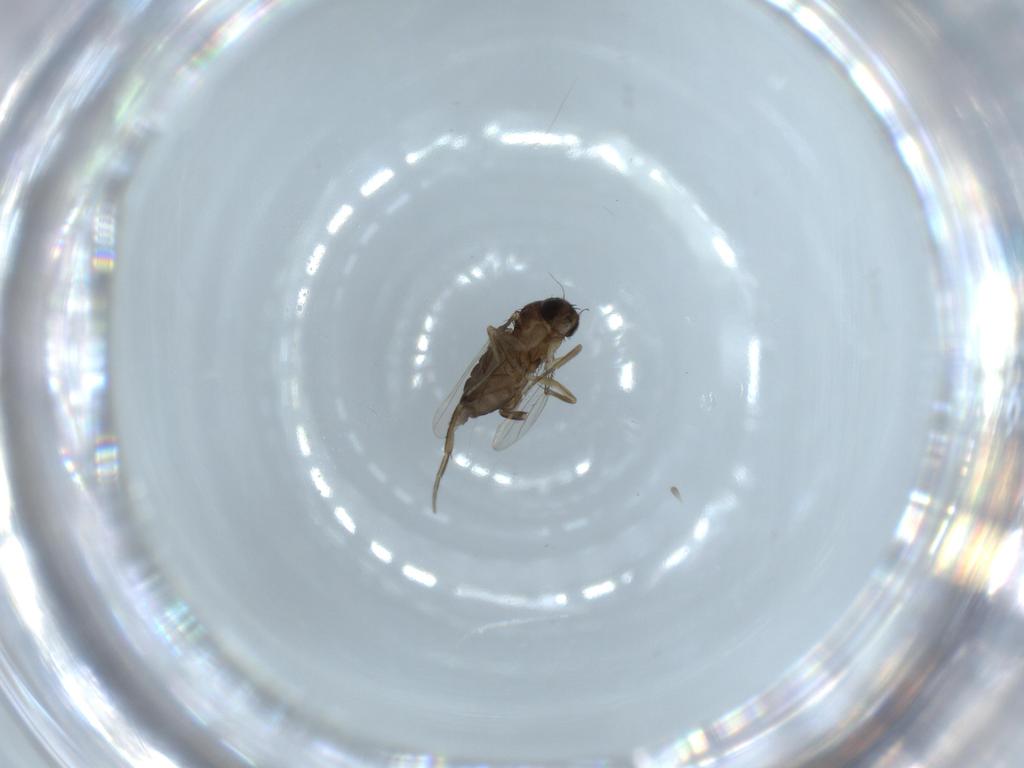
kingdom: Animalia
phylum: Arthropoda
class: Insecta
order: Diptera
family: Phoridae
